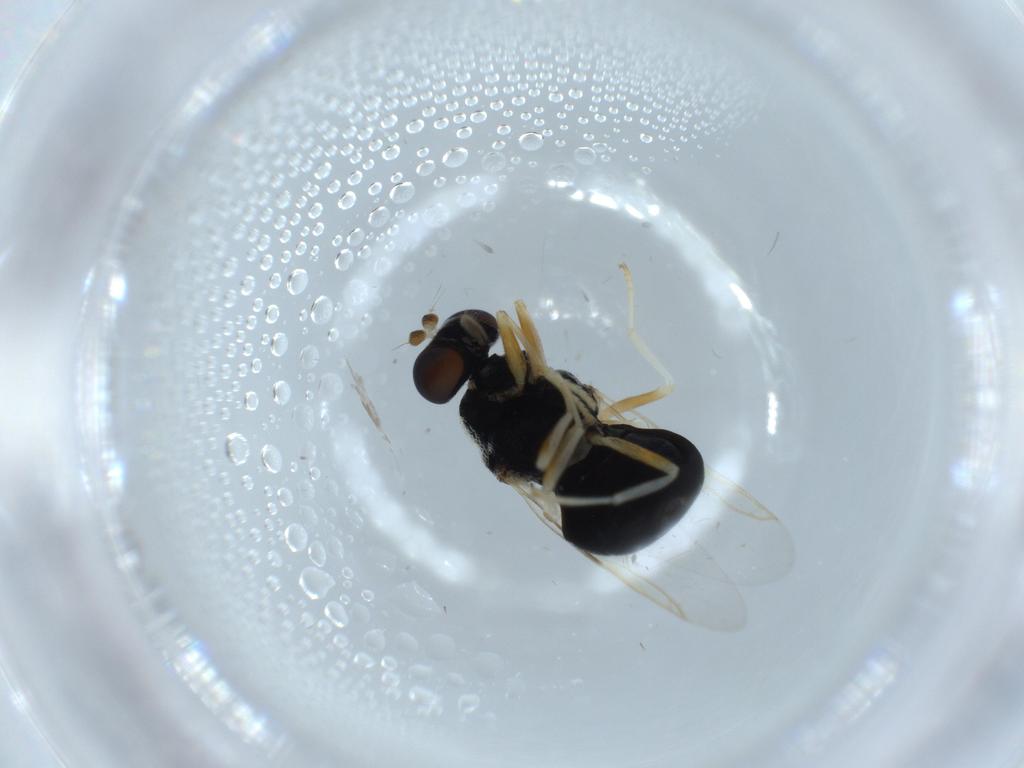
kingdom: Animalia
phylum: Arthropoda
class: Insecta
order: Diptera
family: Stratiomyidae
